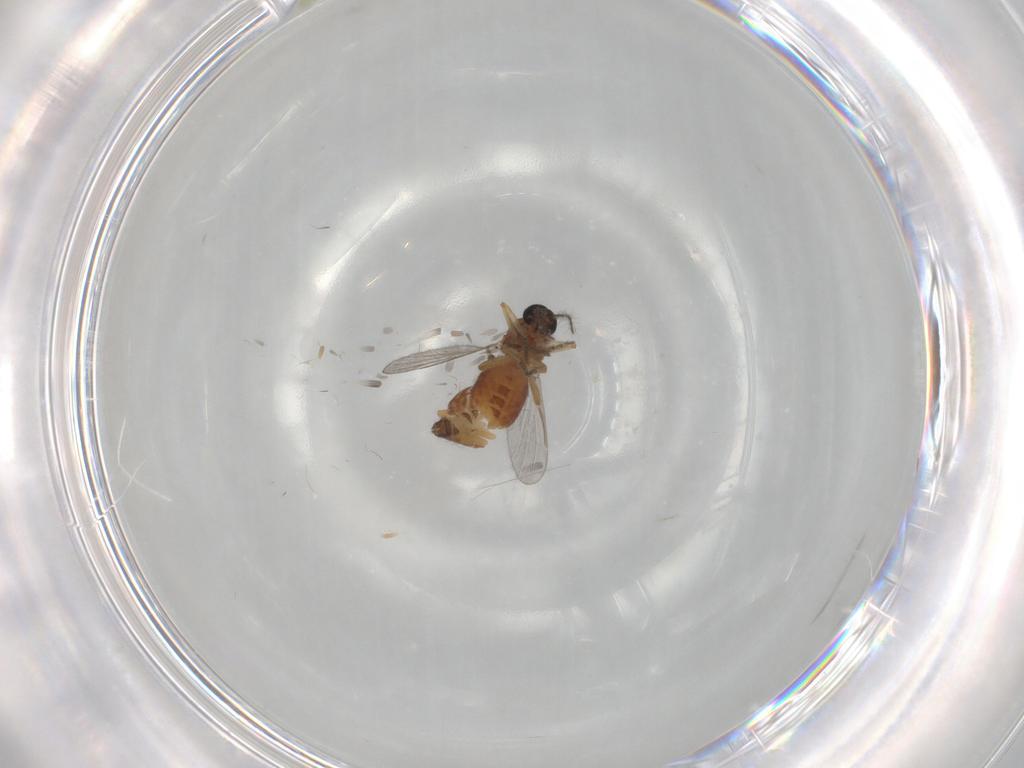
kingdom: Animalia
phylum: Arthropoda
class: Insecta
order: Diptera
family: Ceratopogonidae
